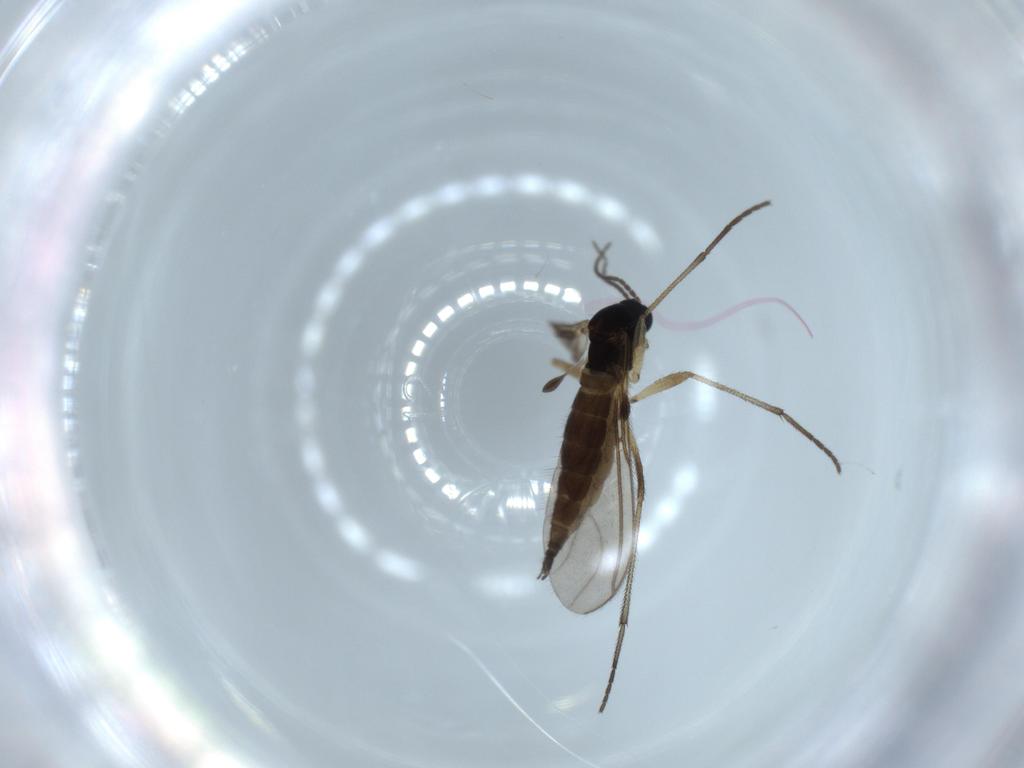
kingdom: Animalia
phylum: Arthropoda
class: Insecta
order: Diptera
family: Sciaridae
